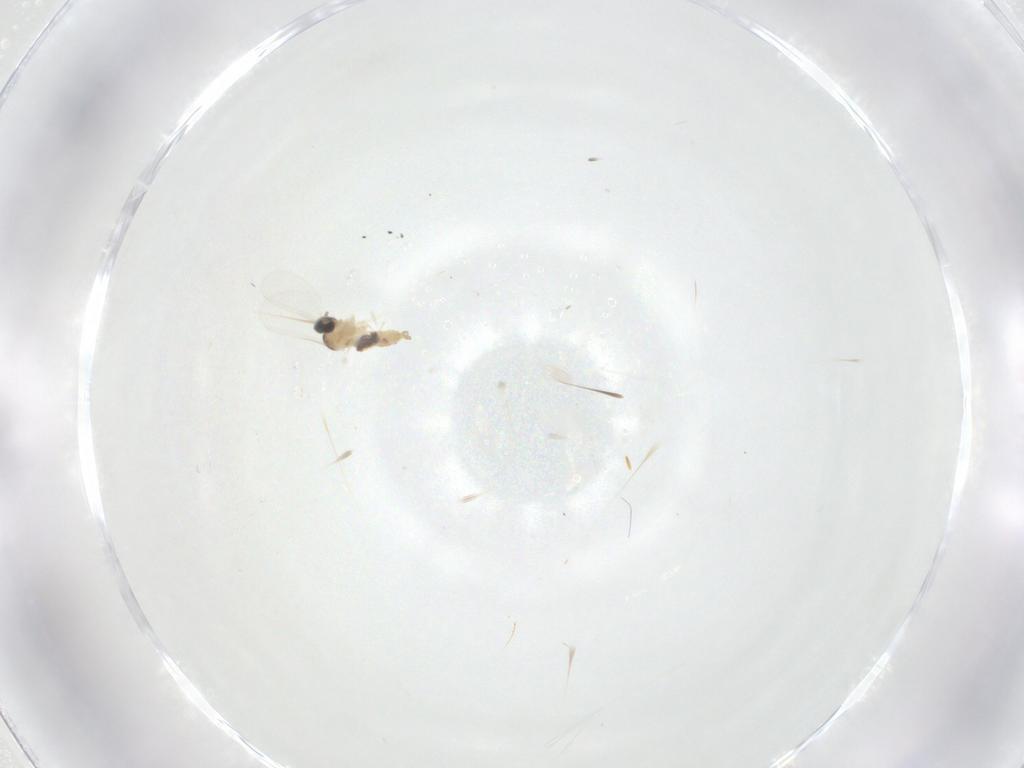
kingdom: Animalia
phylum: Arthropoda
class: Insecta
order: Diptera
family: Cecidomyiidae
